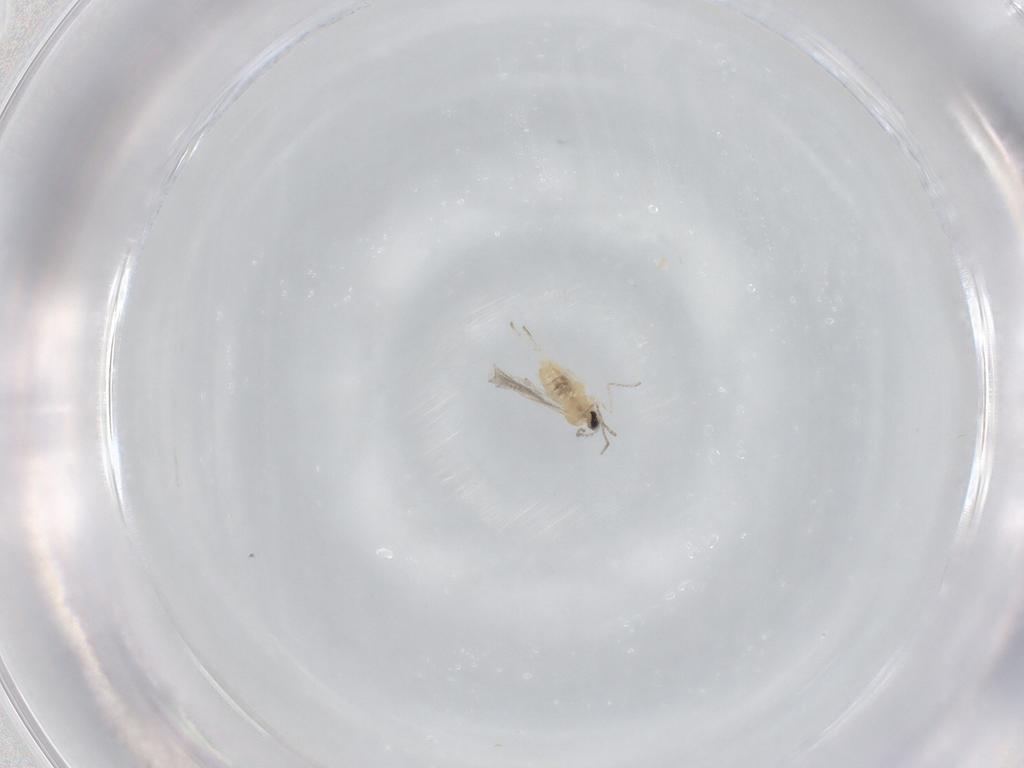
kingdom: Animalia
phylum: Arthropoda
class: Insecta
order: Diptera
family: Cecidomyiidae
